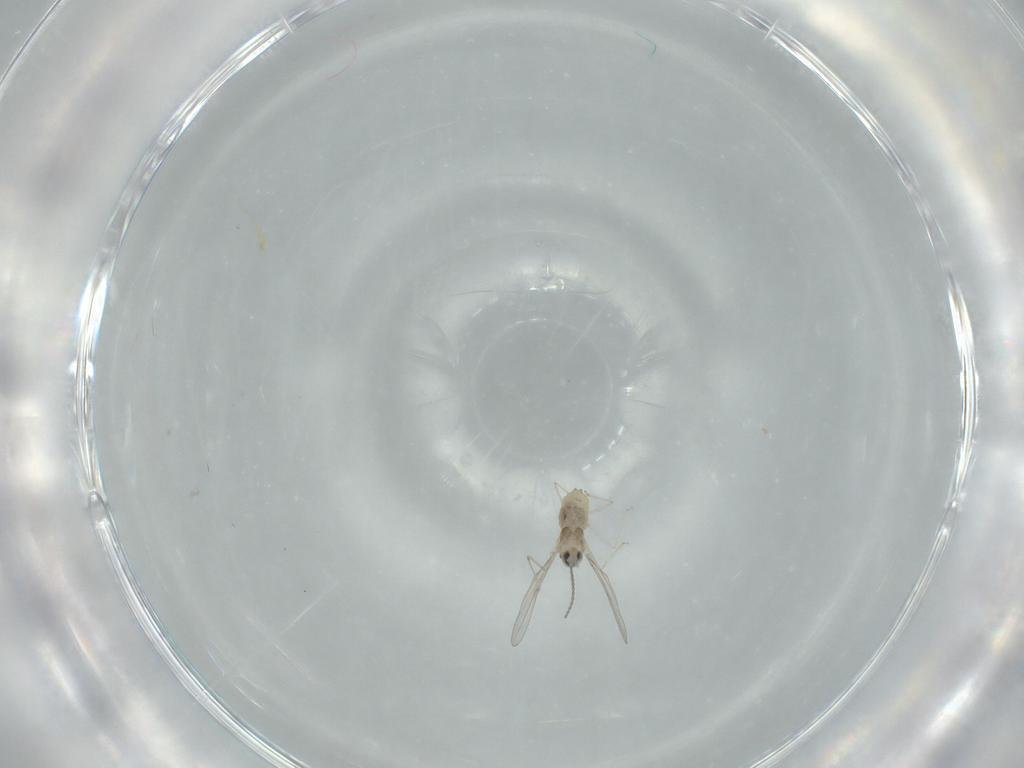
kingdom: Animalia
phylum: Arthropoda
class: Insecta
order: Diptera
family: Cecidomyiidae
